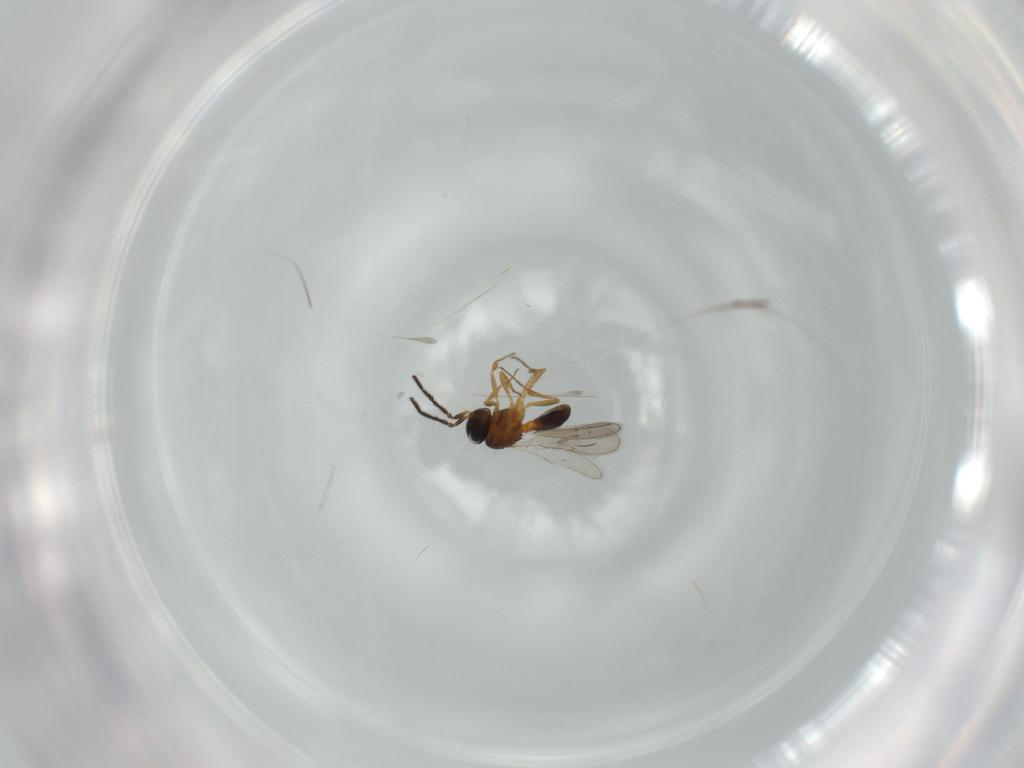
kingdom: Animalia
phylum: Arthropoda
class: Insecta
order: Hymenoptera
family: Scelionidae
